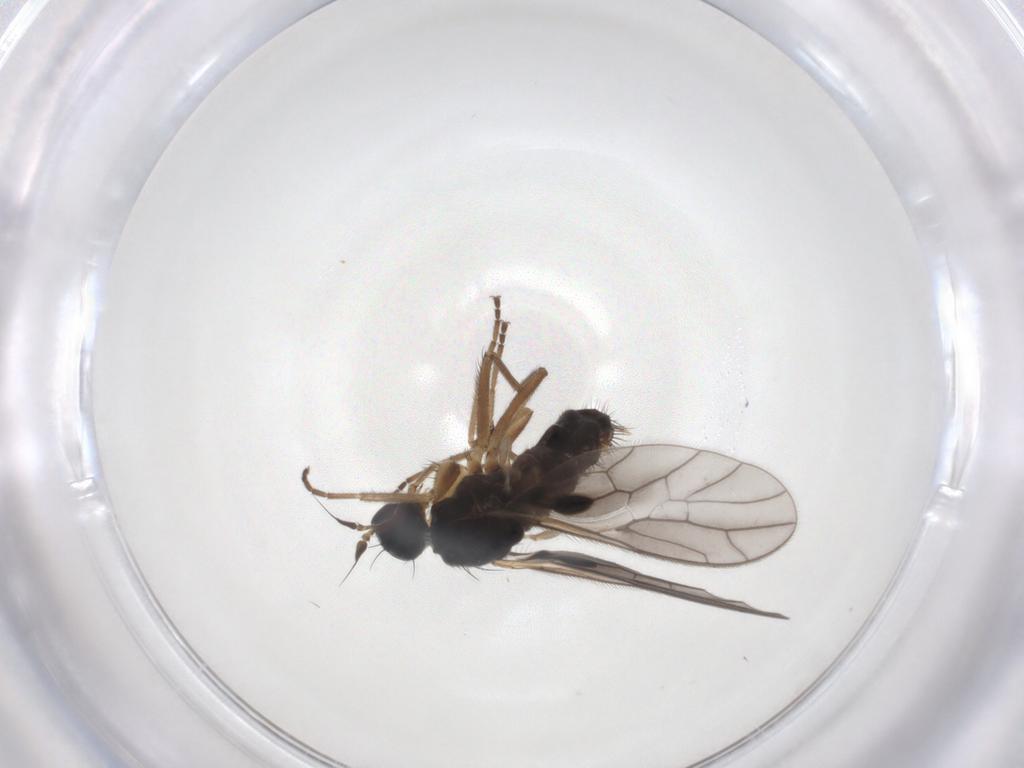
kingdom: Animalia
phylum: Arthropoda
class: Insecta
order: Diptera
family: Empididae
